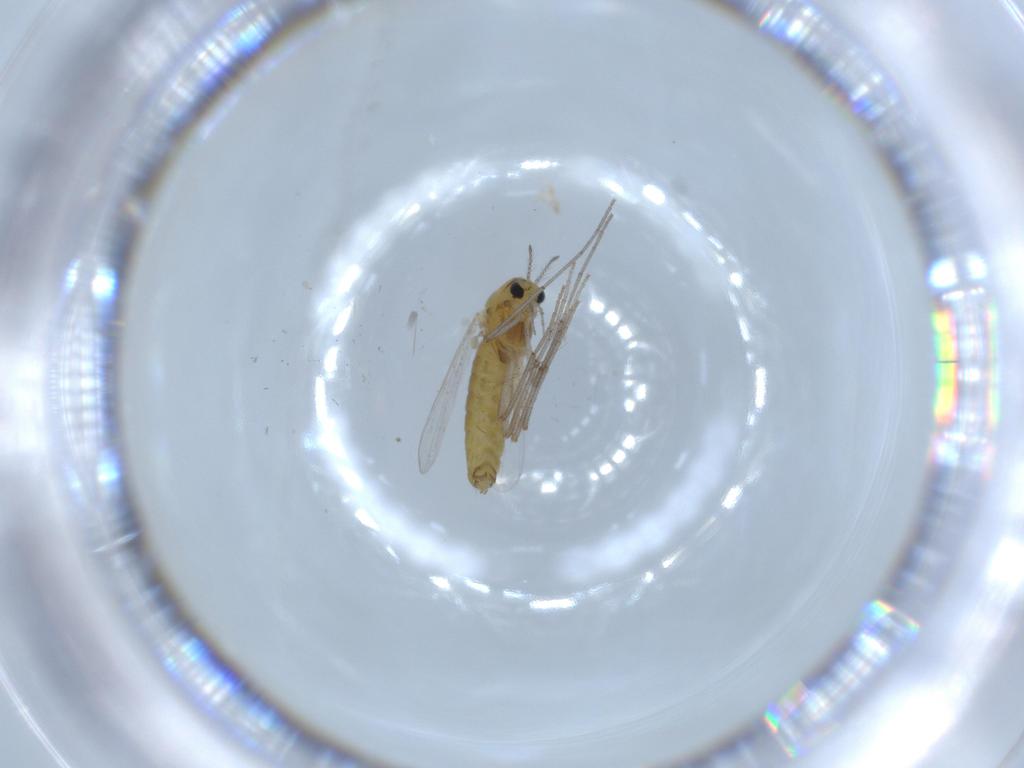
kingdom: Animalia
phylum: Arthropoda
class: Insecta
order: Diptera
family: Chironomidae
